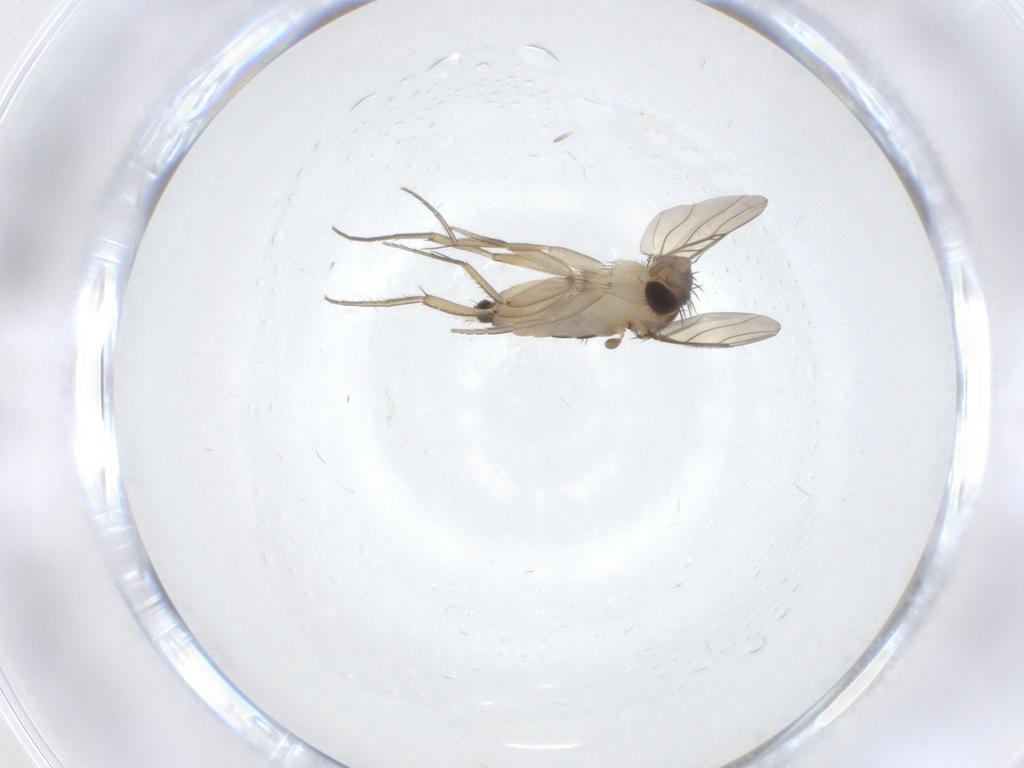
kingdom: Animalia
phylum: Arthropoda
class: Insecta
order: Diptera
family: Phoridae
